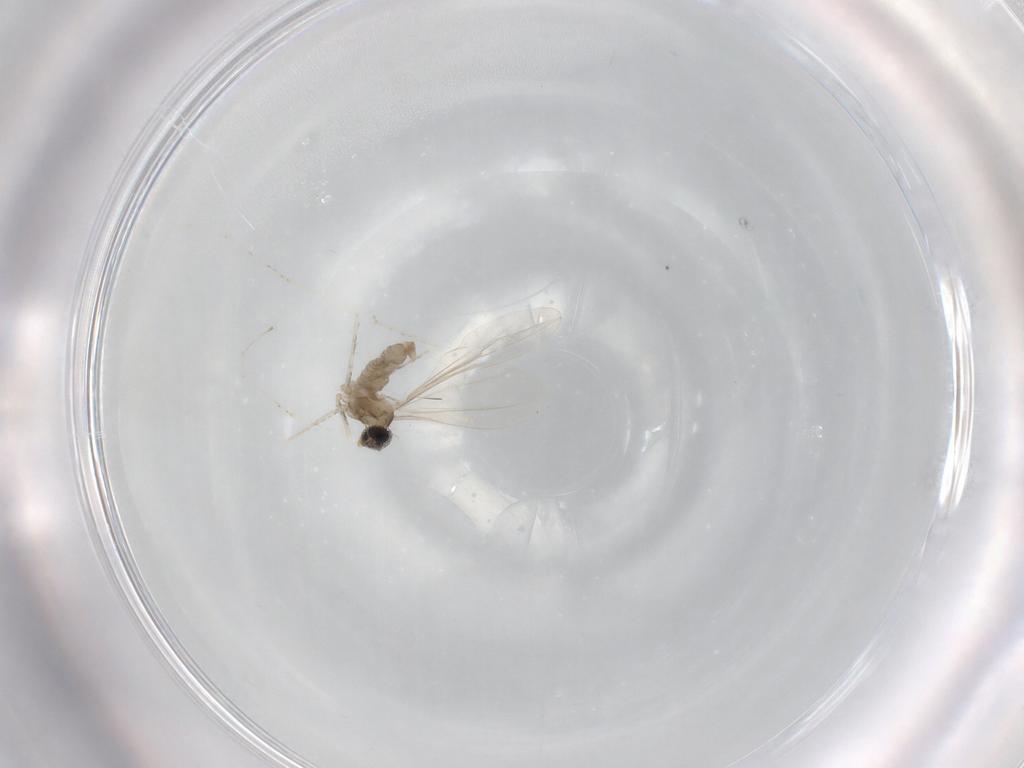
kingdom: Animalia
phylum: Arthropoda
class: Insecta
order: Diptera
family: Cecidomyiidae
